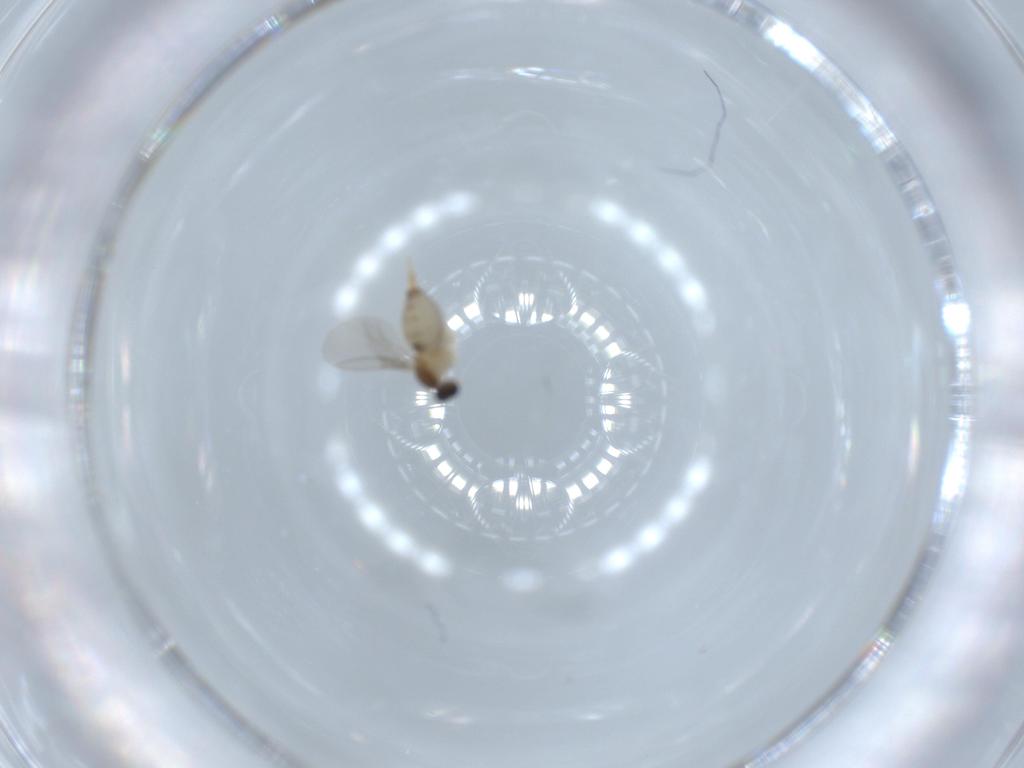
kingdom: Animalia
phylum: Arthropoda
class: Insecta
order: Diptera
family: Cecidomyiidae
